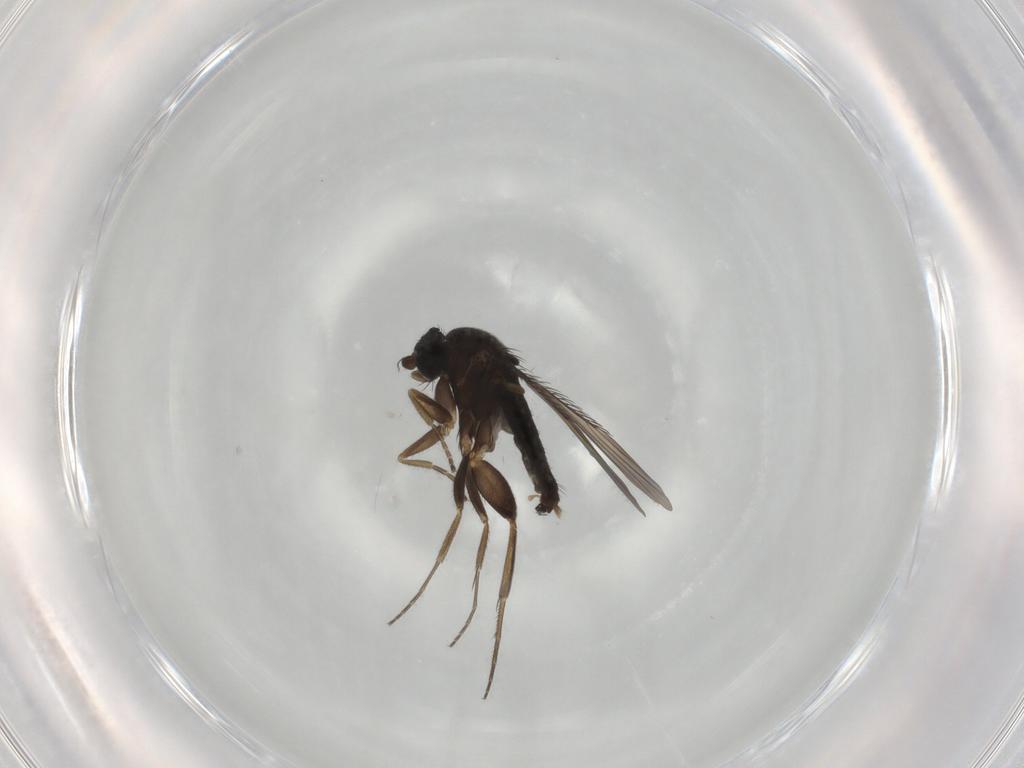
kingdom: Animalia
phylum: Arthropoda
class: Insecta
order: Diptera
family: Phoridae
